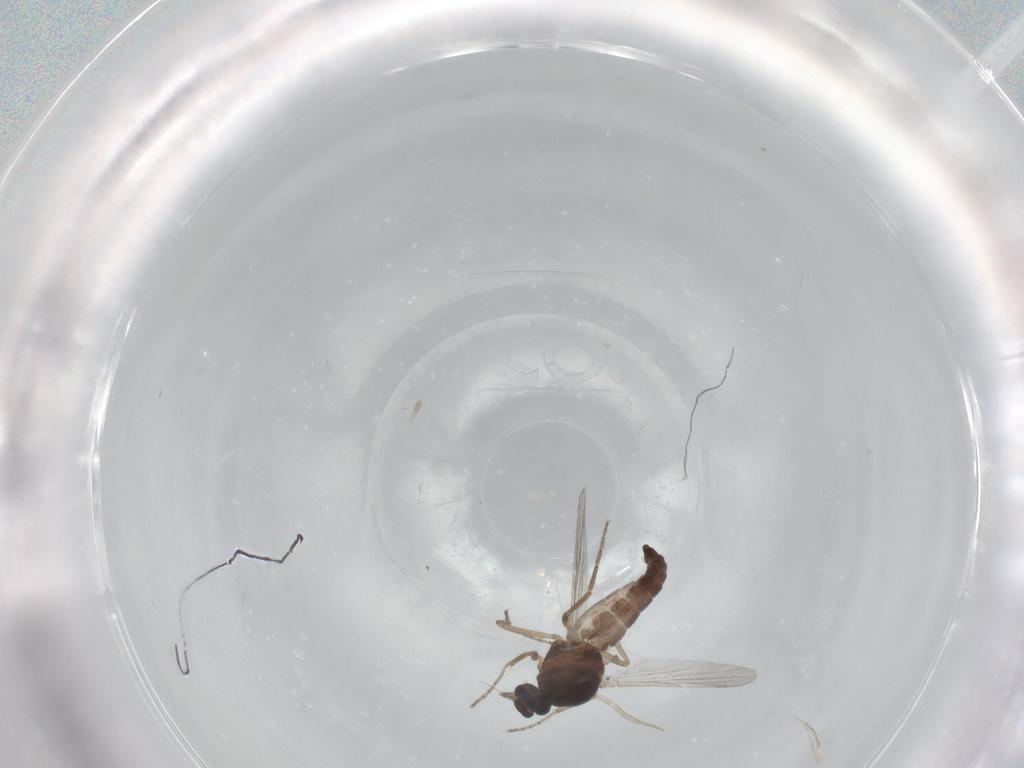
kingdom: Animalia
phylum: Arthropoda
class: Insecta
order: Diptera
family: Ceratopogonidae
